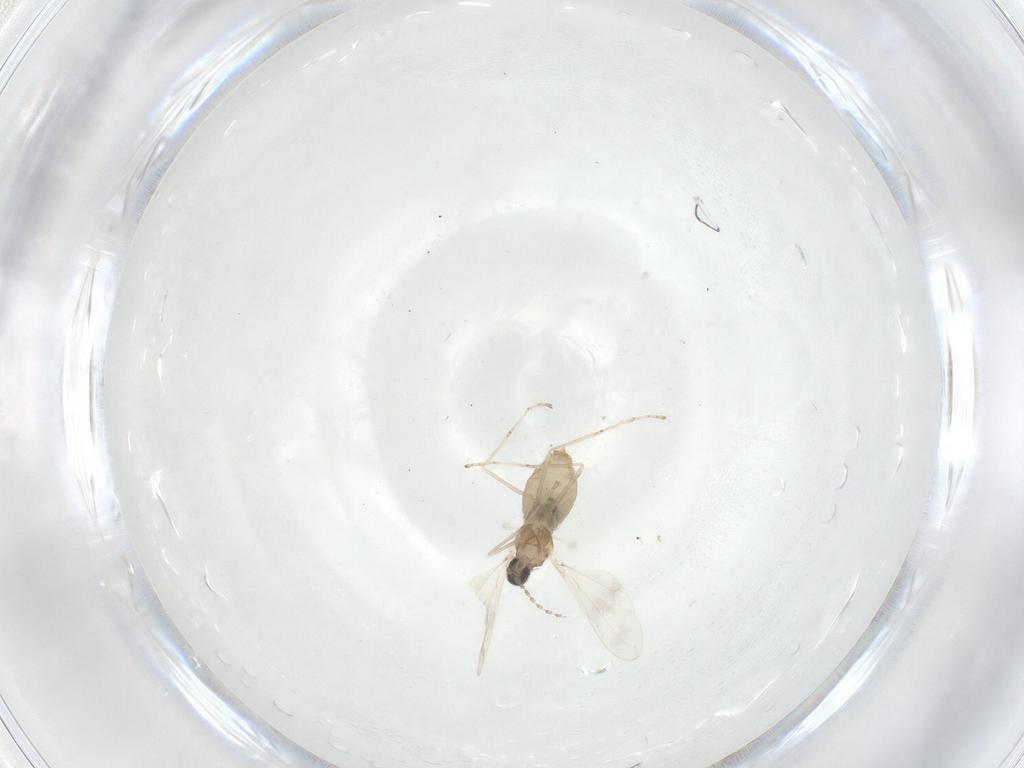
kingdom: Animalia
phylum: Arthropoda
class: Insecta
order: Diptera
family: Cecidomyiidae
